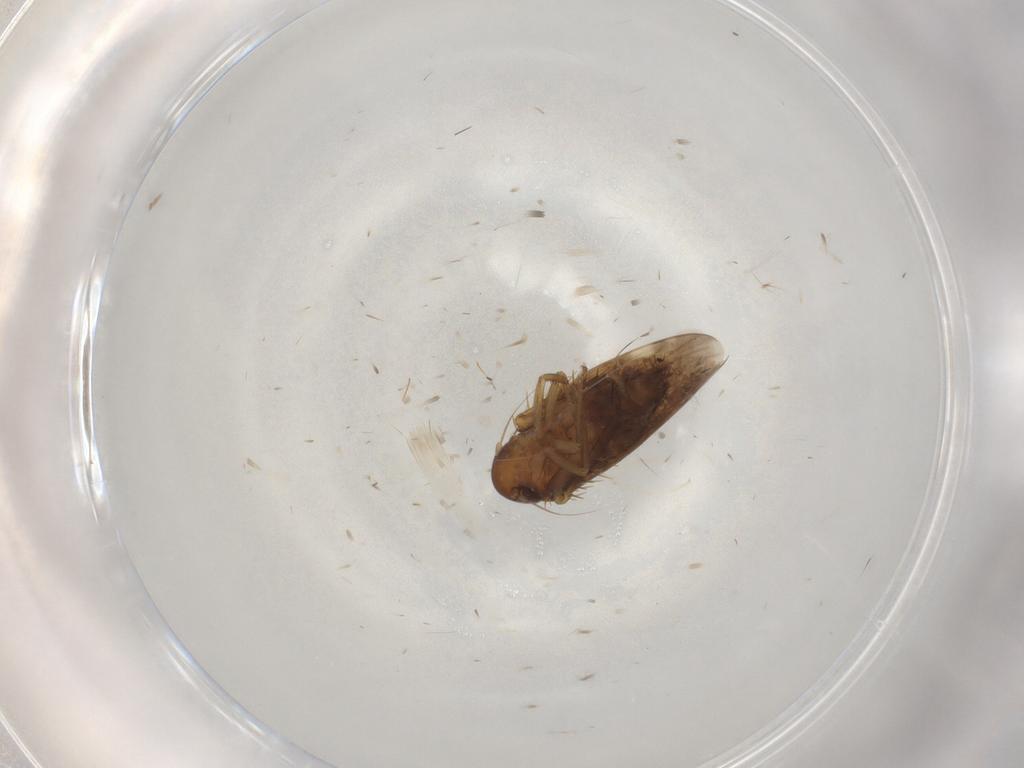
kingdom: Animalia
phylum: Arthropoda
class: Insecta
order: Hemiptera
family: Cicadellidae
